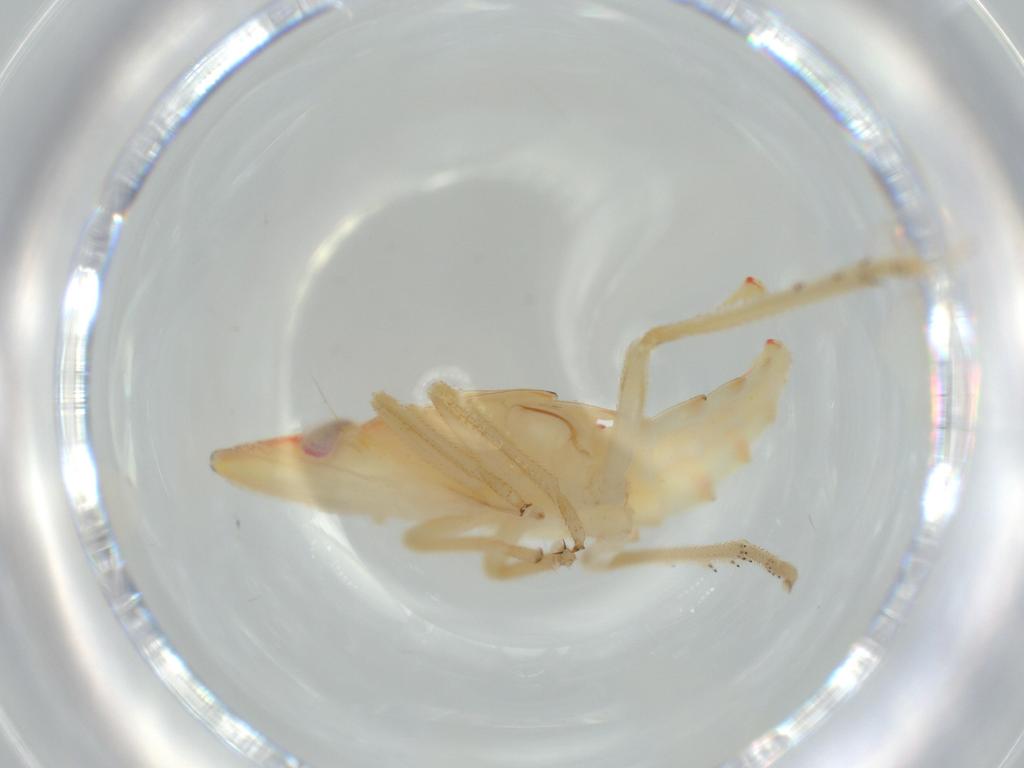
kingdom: Animalia
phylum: Arthropoda
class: Insecta
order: Hemiptera
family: Tropiduchidae
